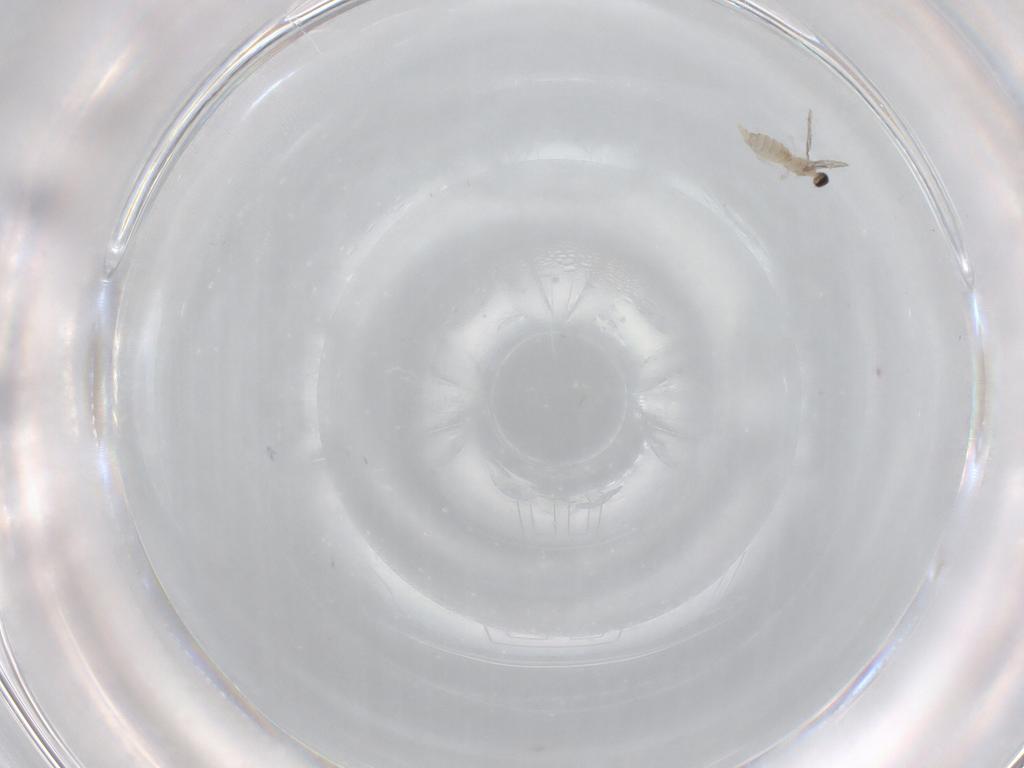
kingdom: Animalia
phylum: Arthropoda
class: Insecta
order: Diptera
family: Cecidomyiidae
